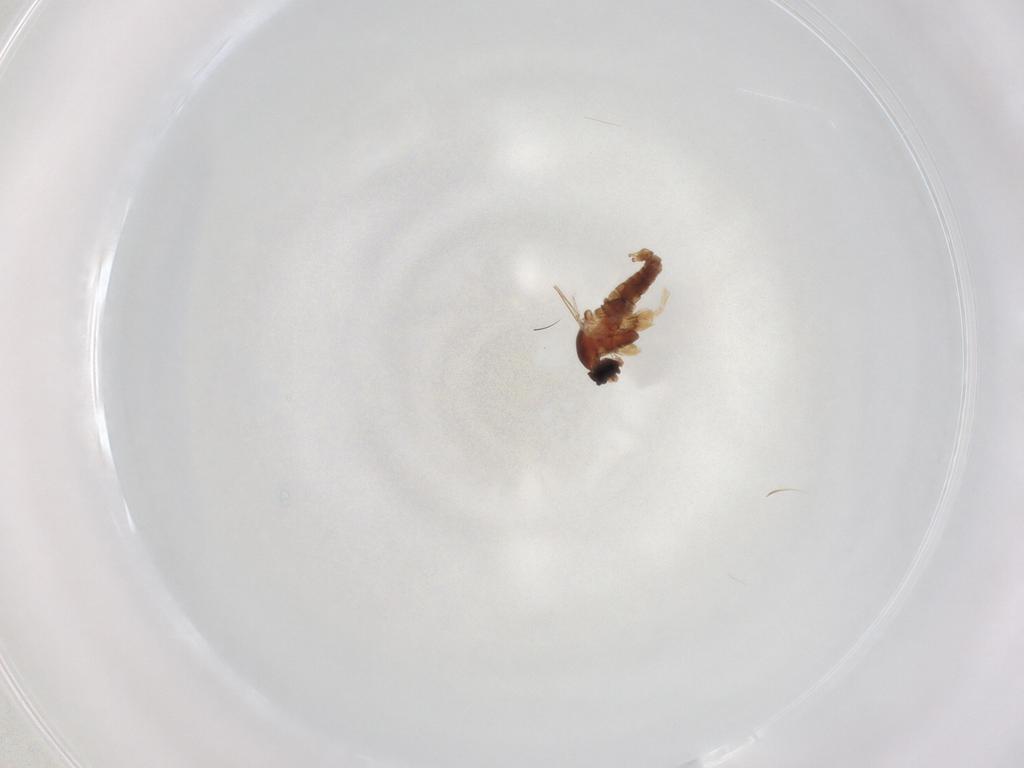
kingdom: Animalia
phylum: Arthropoda
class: Insecta
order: Diptera
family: Cecidomyiidae
